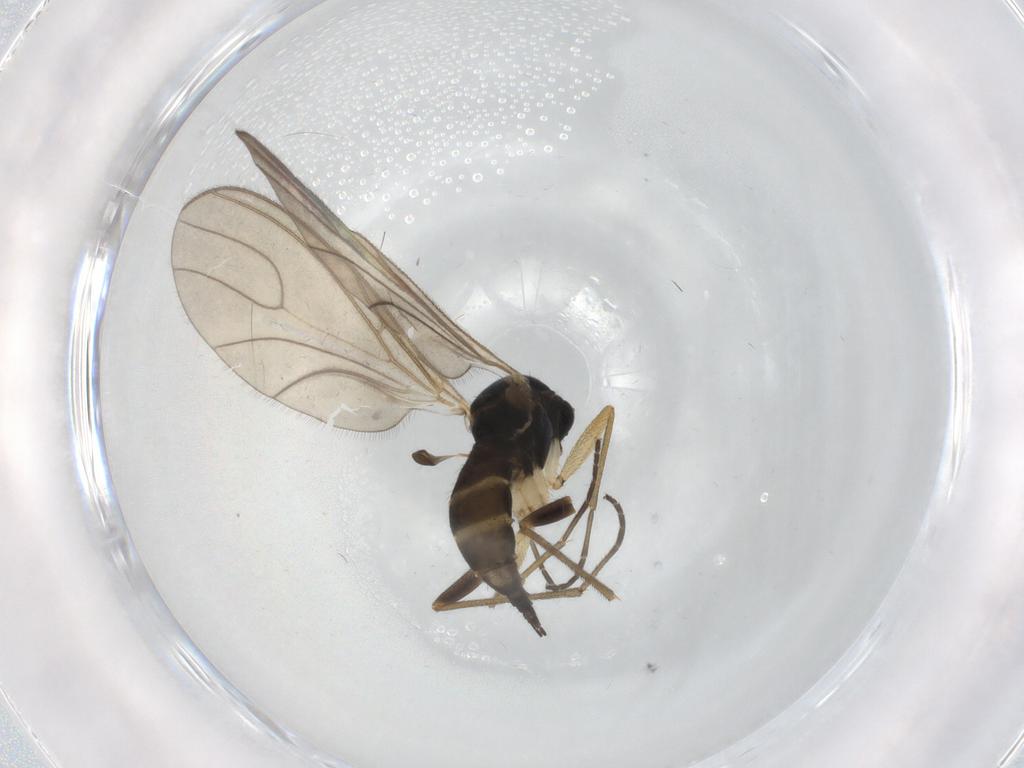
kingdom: Animalia
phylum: Arthropoda
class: Insecta
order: Diptera
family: Sciaridae
